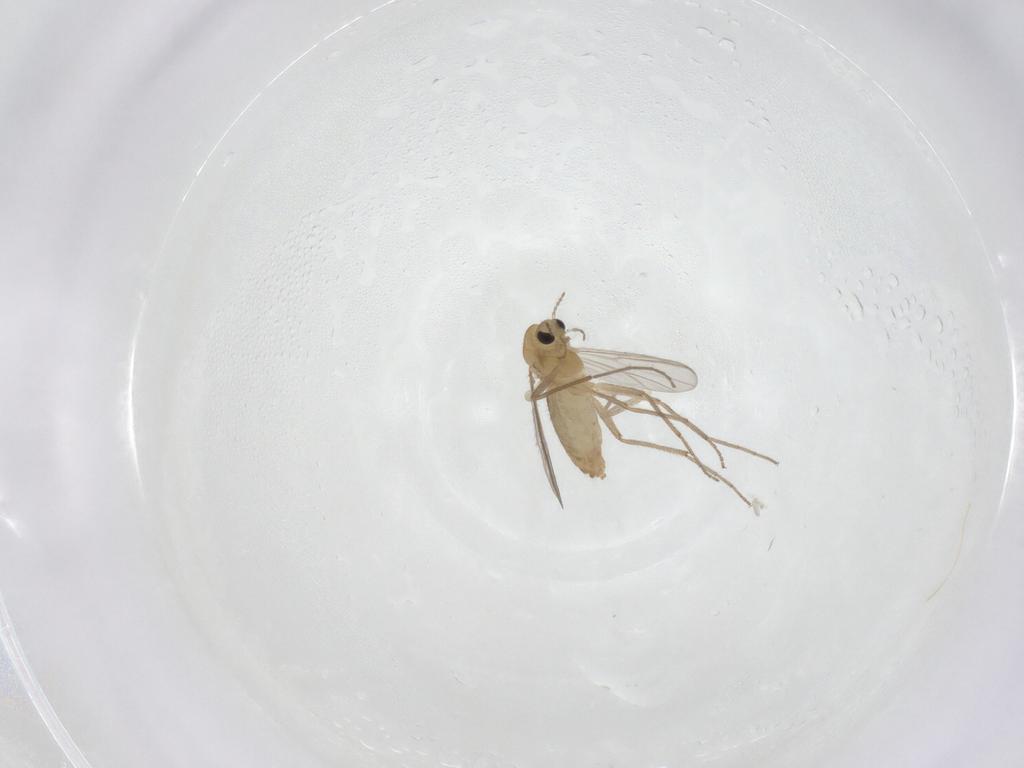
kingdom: Animalia
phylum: Arthropoda
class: Insecta
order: Diptera
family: Chironomidae
